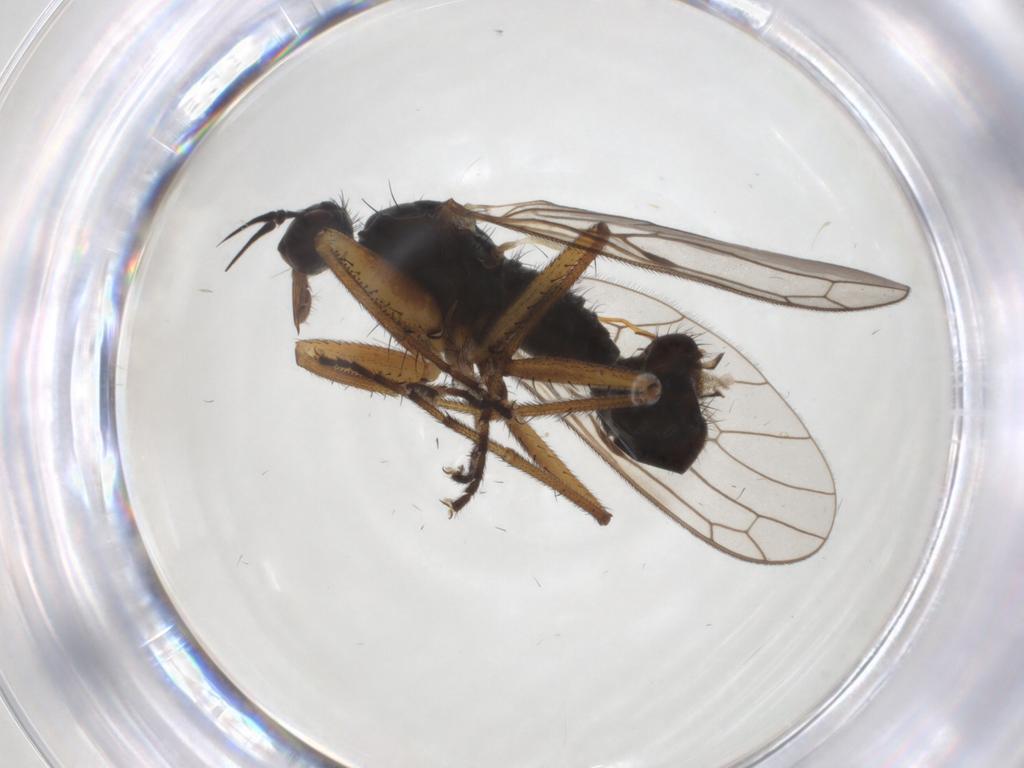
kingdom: Animalia
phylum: Arthropoda
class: Insecta
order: Diptera
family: Empididae
